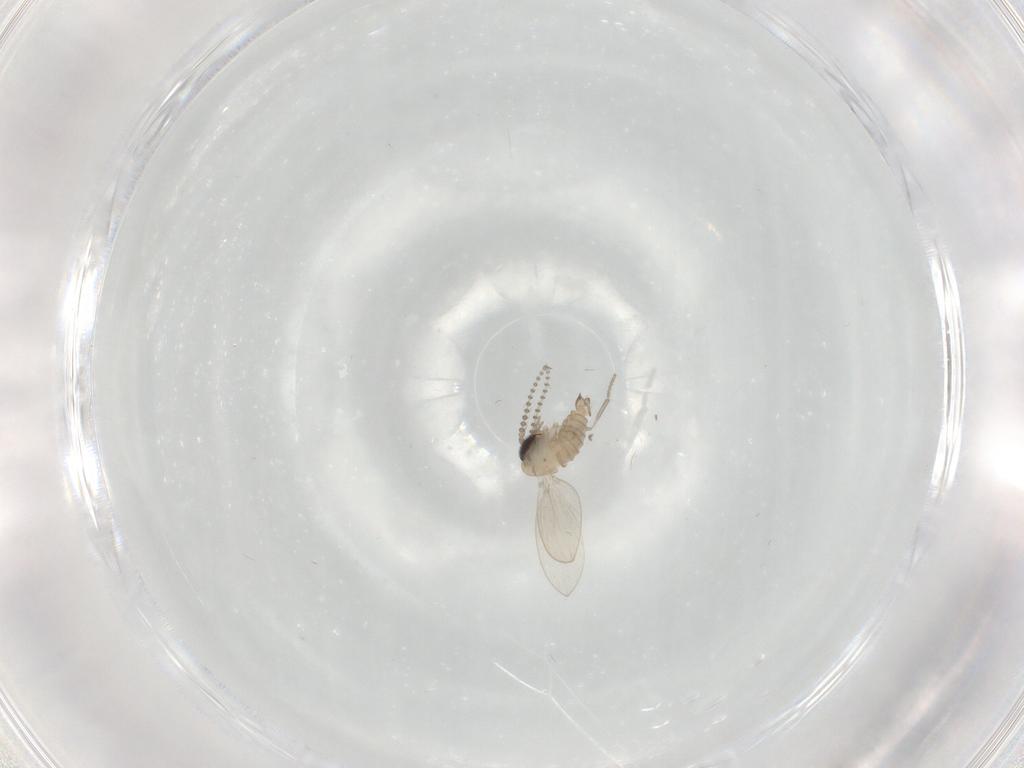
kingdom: Animalia
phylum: Arthropoda
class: Insecta
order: Diptera
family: Psychodidae
